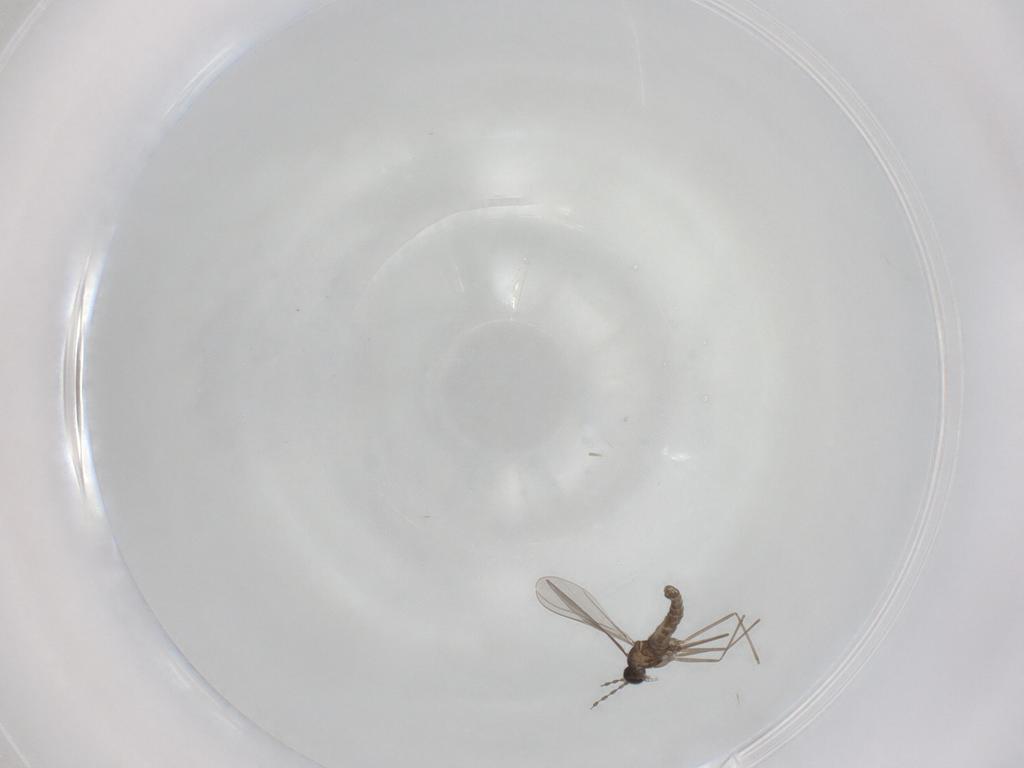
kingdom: Animalia
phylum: Arthropoda
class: Insecta
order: Diptera
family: Cecidomyiidae
